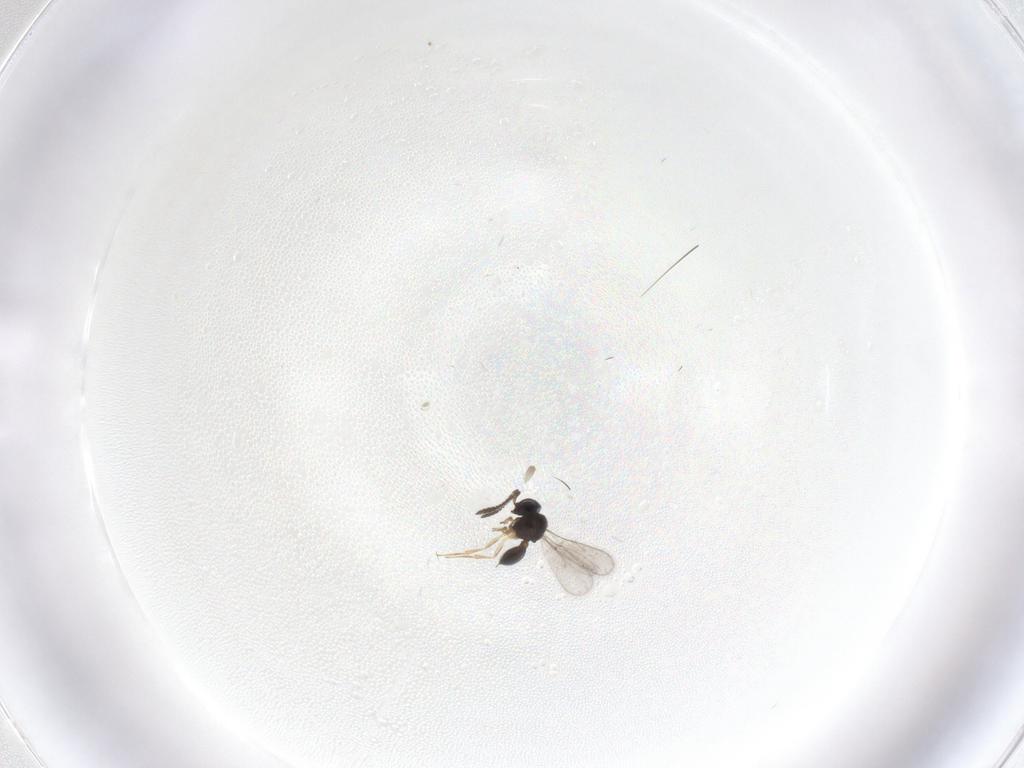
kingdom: Animalia
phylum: Arthropoda
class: Insecta
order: Hymenoptera
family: Scelionidae
